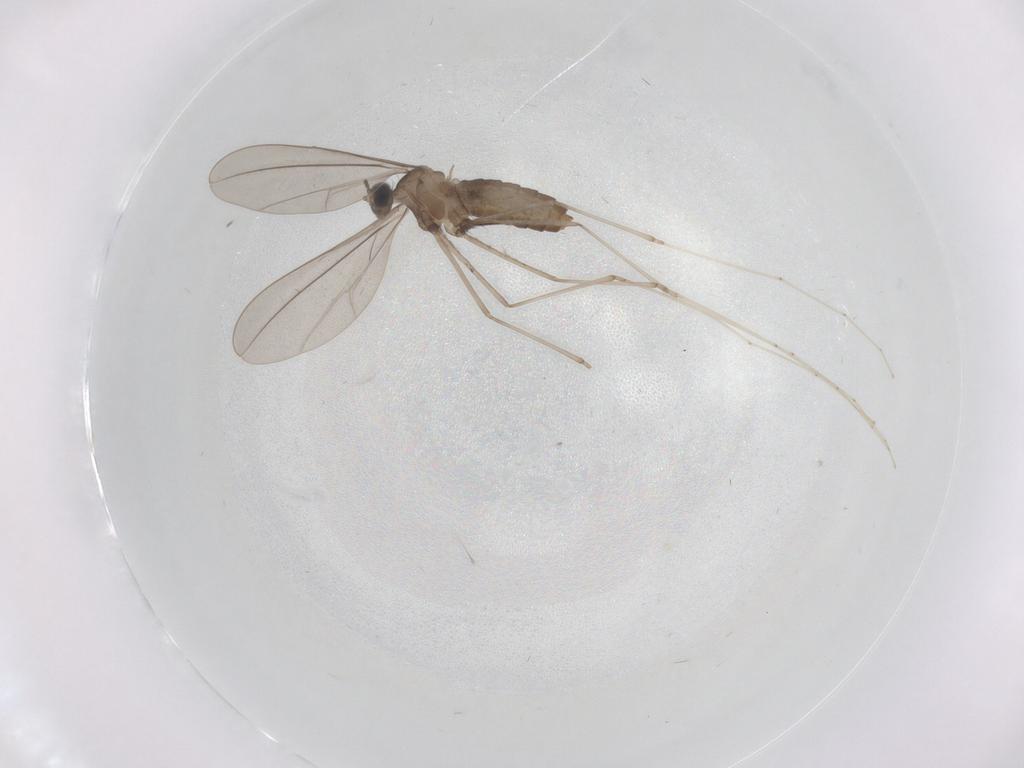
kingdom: Animalia
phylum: Arthropoda
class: Insecta
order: Diptera
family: Cecidomyiidae
